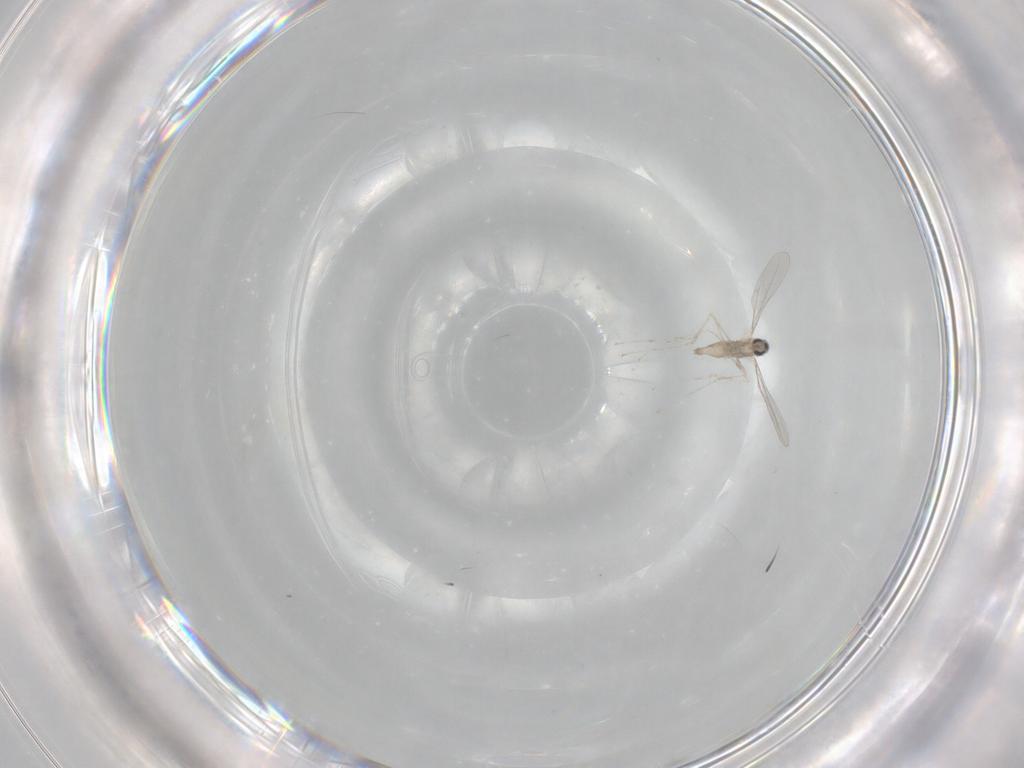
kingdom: Animalia
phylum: Arthropoda
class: Insecta
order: Diptera
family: Cecidomyiidae
